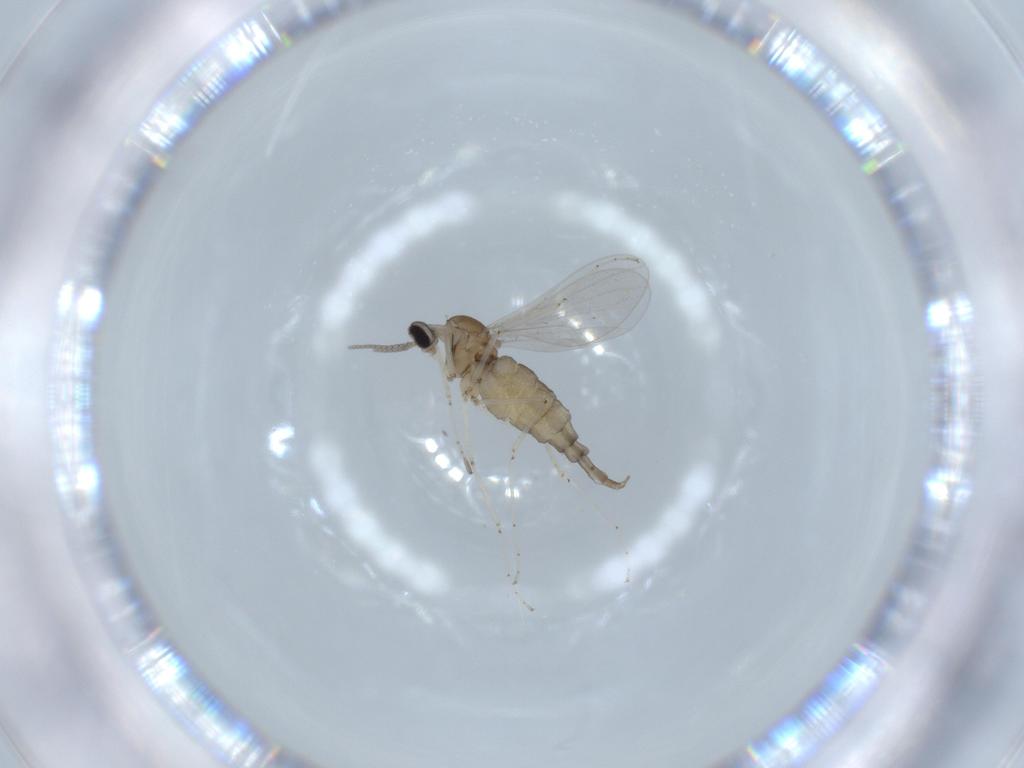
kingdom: Animalia
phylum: Arthropoda
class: Insecta
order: Diptera
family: Cecidomyiidae
